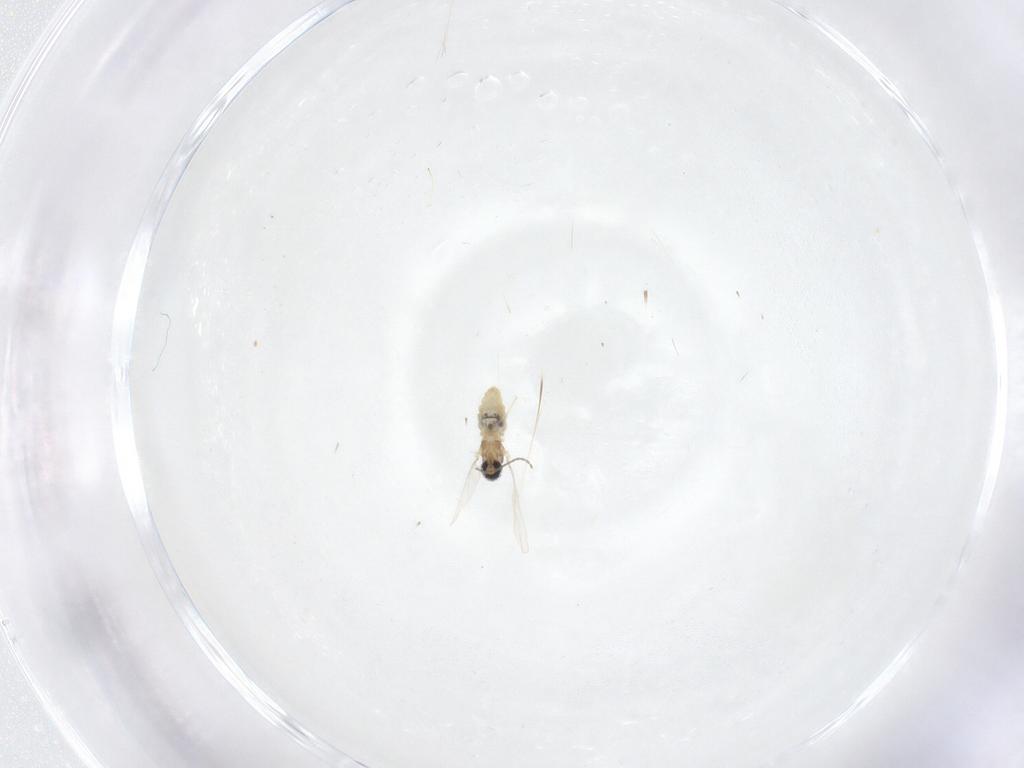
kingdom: Animalia
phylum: Arthropoda
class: Insecta
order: Diptera
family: Cecidomyiidae
